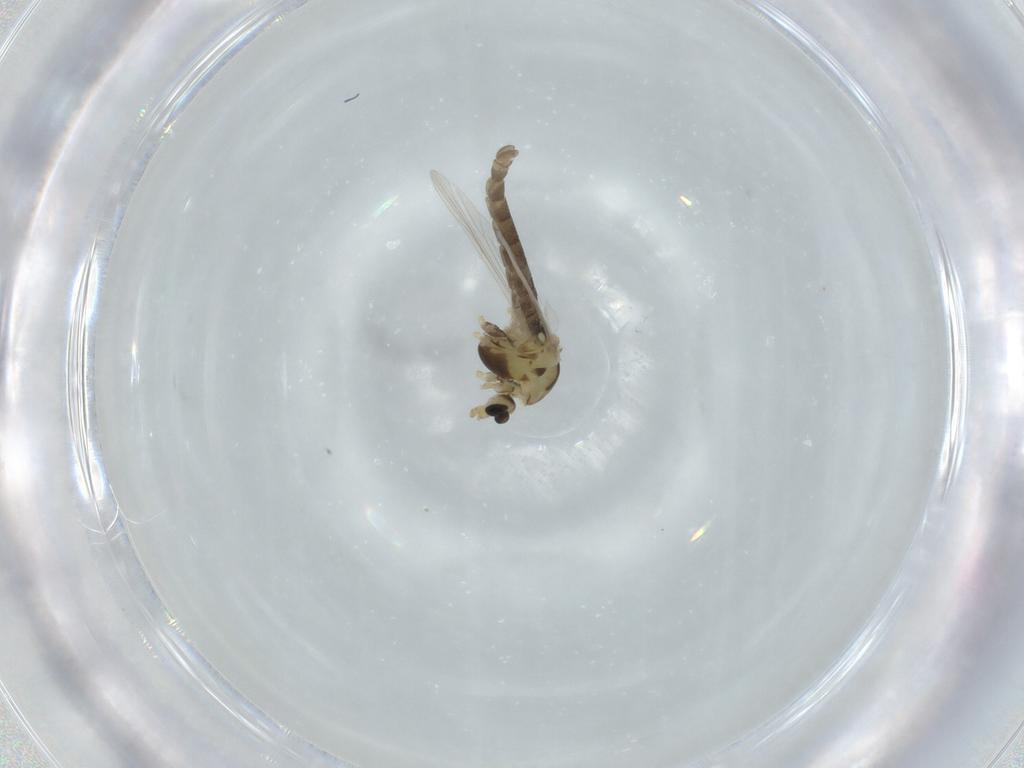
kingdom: Animalia
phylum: Arthropoda
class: Insecta
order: Diptera
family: Chironomidae
